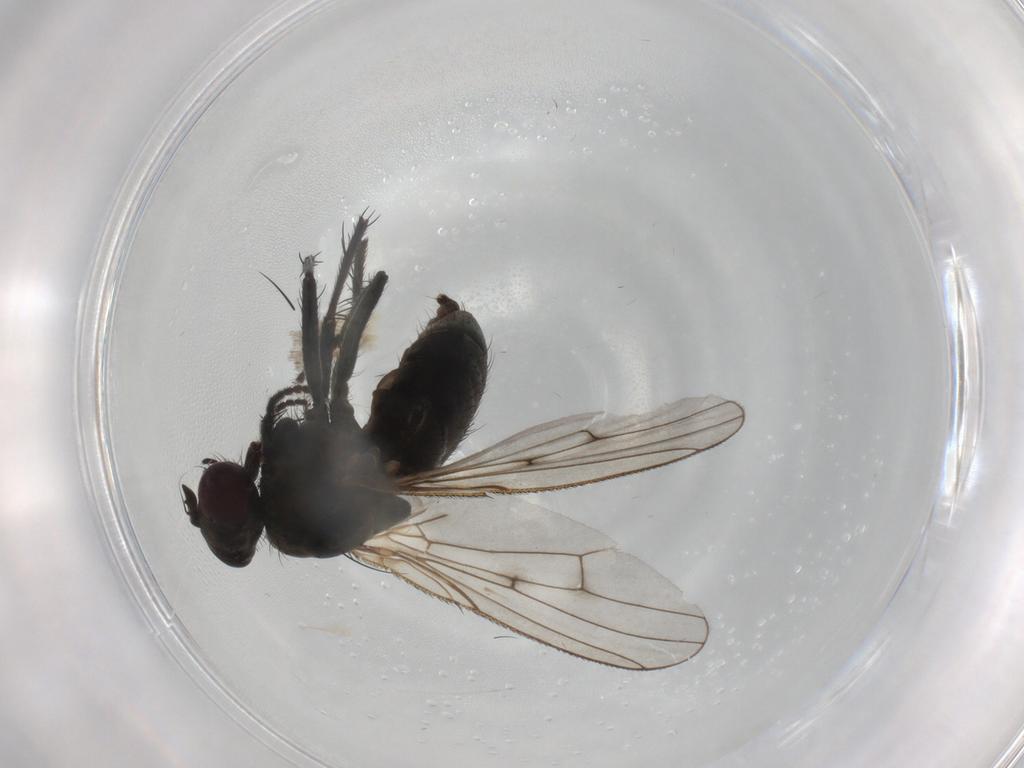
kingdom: Animalia
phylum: Arthropoda
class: Insecta
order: Diptera
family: Muscidae
